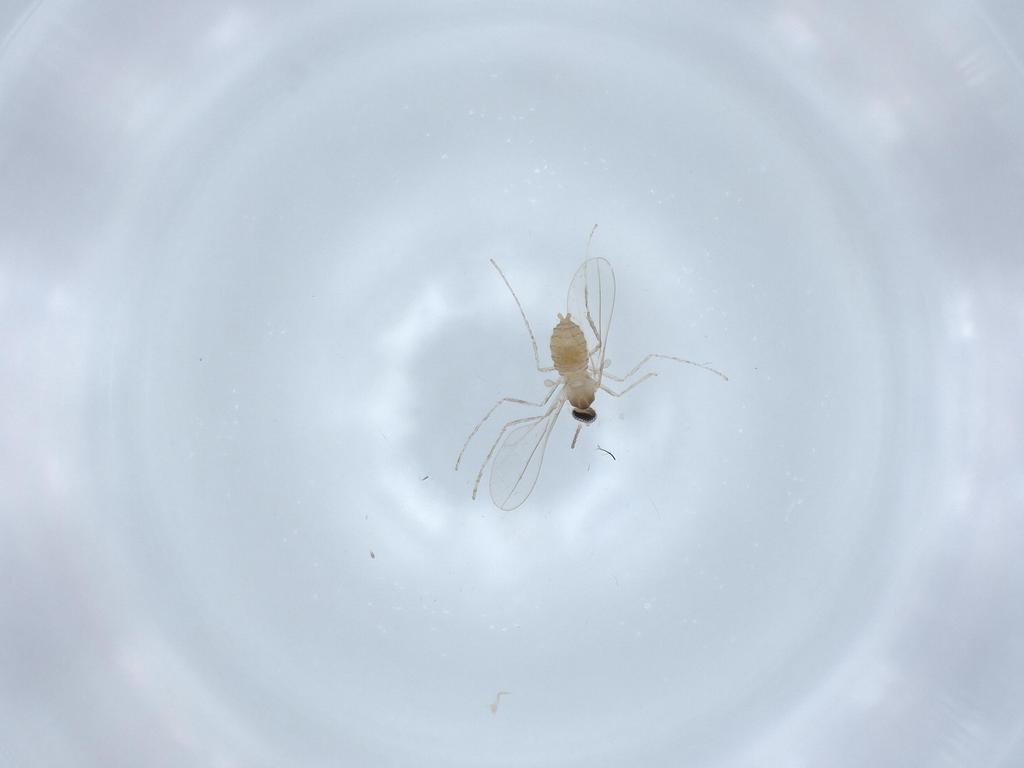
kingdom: Animalia
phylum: Arthropoda
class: Insecta
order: Diptera
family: Cecidomyiidae
